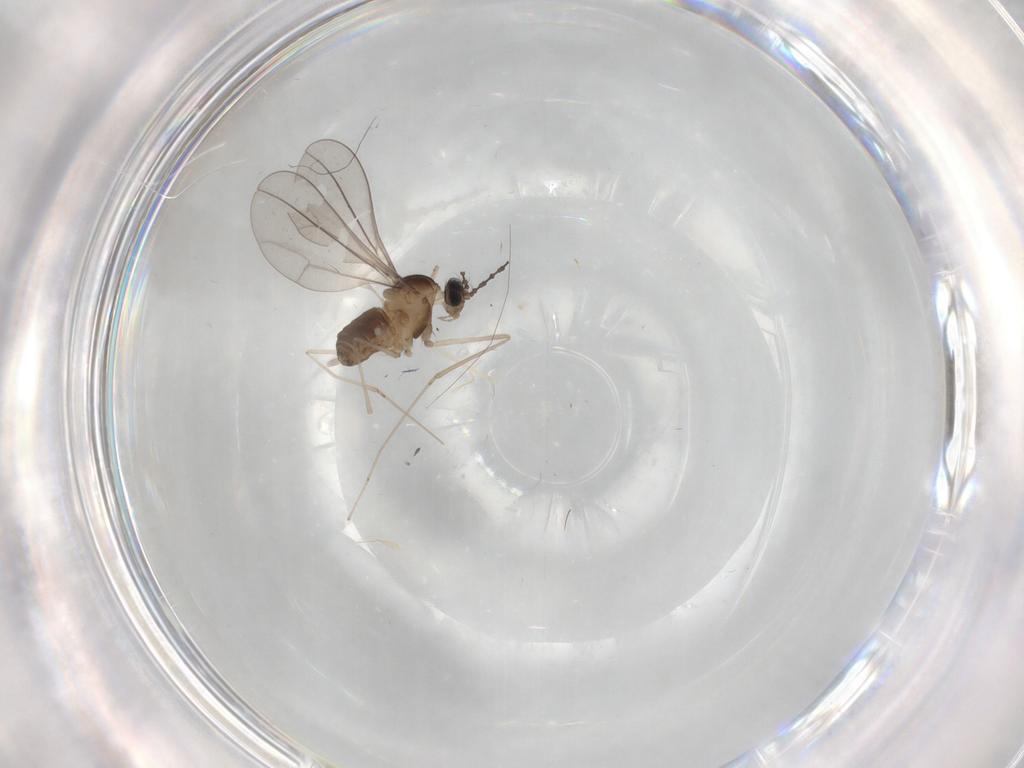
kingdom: Animalia
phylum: Arthropoda
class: Insecta
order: Diptera
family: Cecidomyiidae
